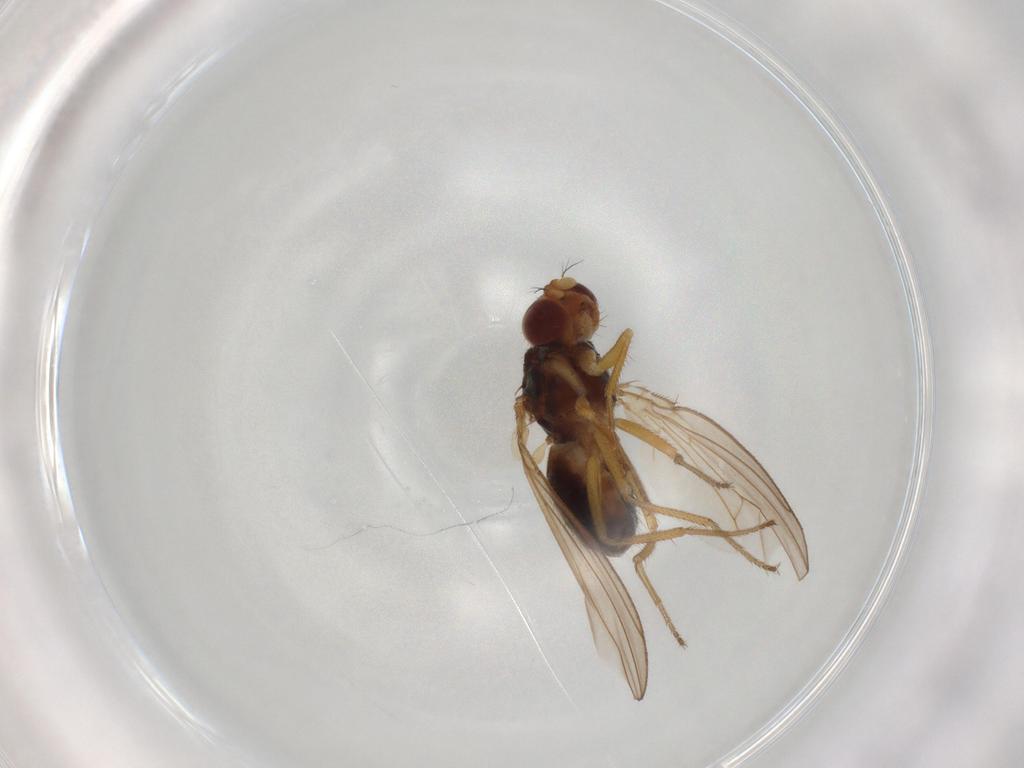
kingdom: Animalia
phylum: Arthropoda
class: Insecta
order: Diptera
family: Drosophilidae
